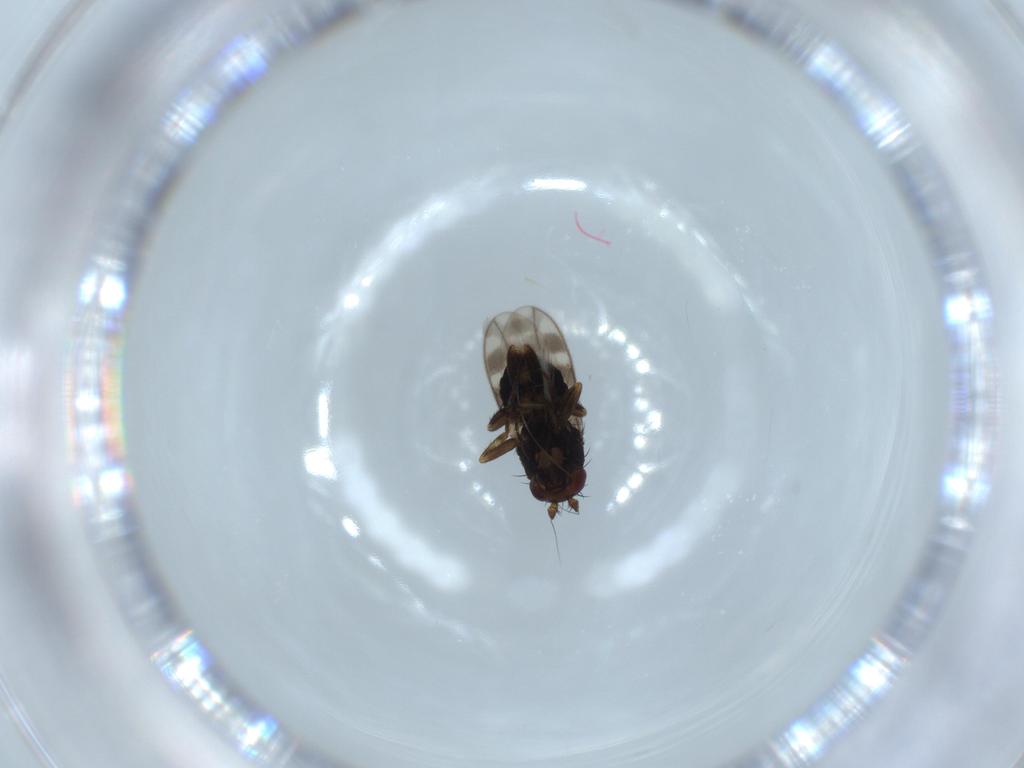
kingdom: Animalia
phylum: Arthropoda
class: Insecta
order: Diptera
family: Sphaeroceridae
